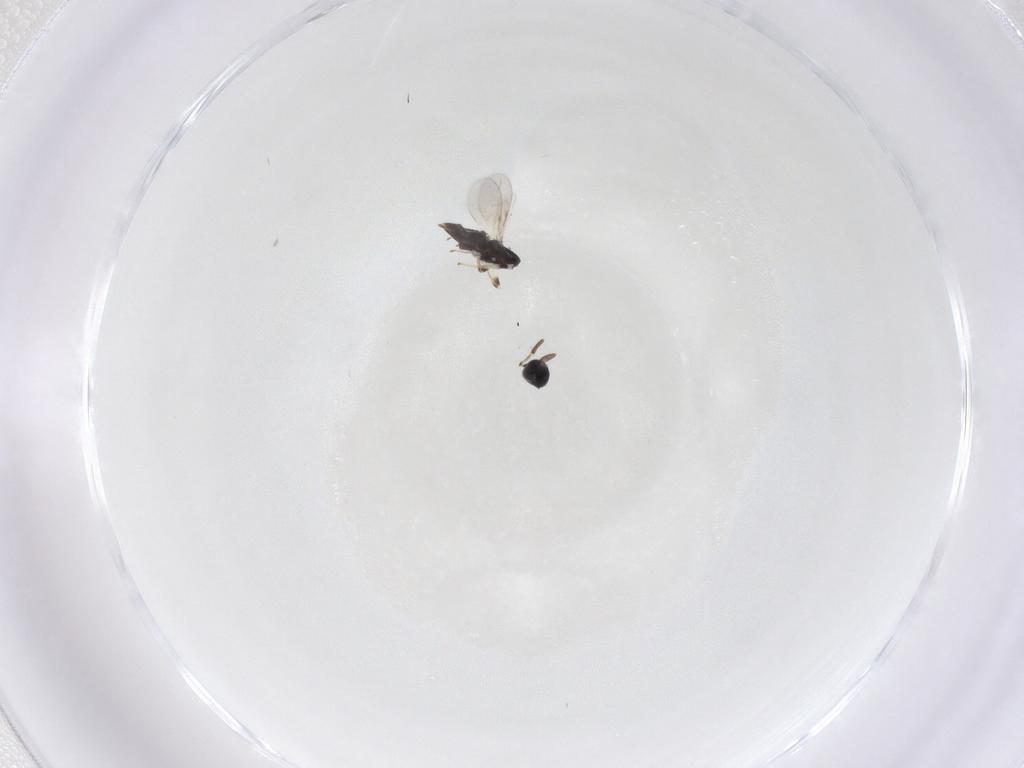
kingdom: Animalia
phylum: Arthropoda
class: Insecta
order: Hymenoptera
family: Encyrtidae
